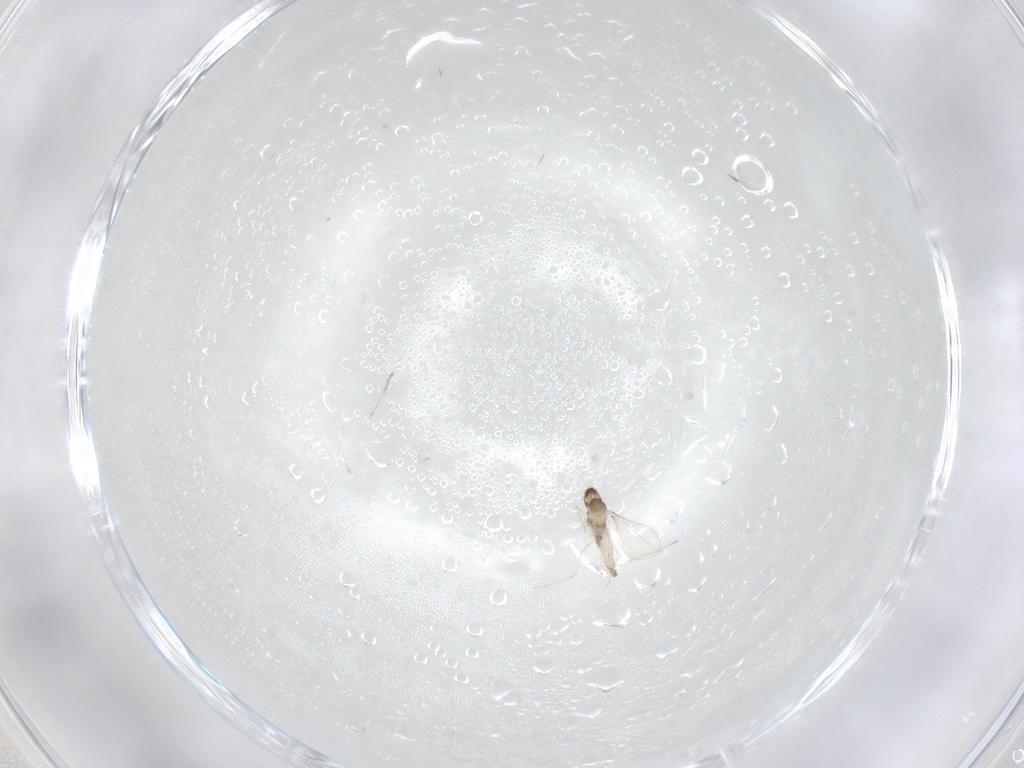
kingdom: Animalia
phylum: Arthropoda
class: Insecta
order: Diptera
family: Cecidomyiidae
